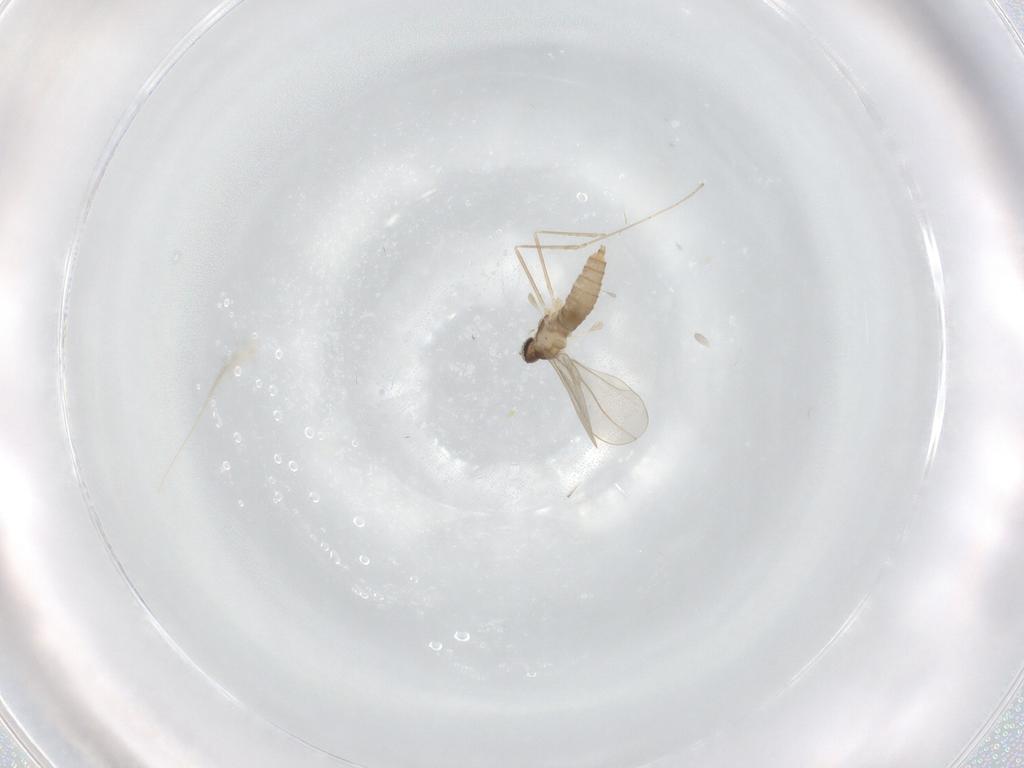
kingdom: Animalia
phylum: Arthropoda
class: Insecta
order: Diptera
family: Cecidomyiidae
